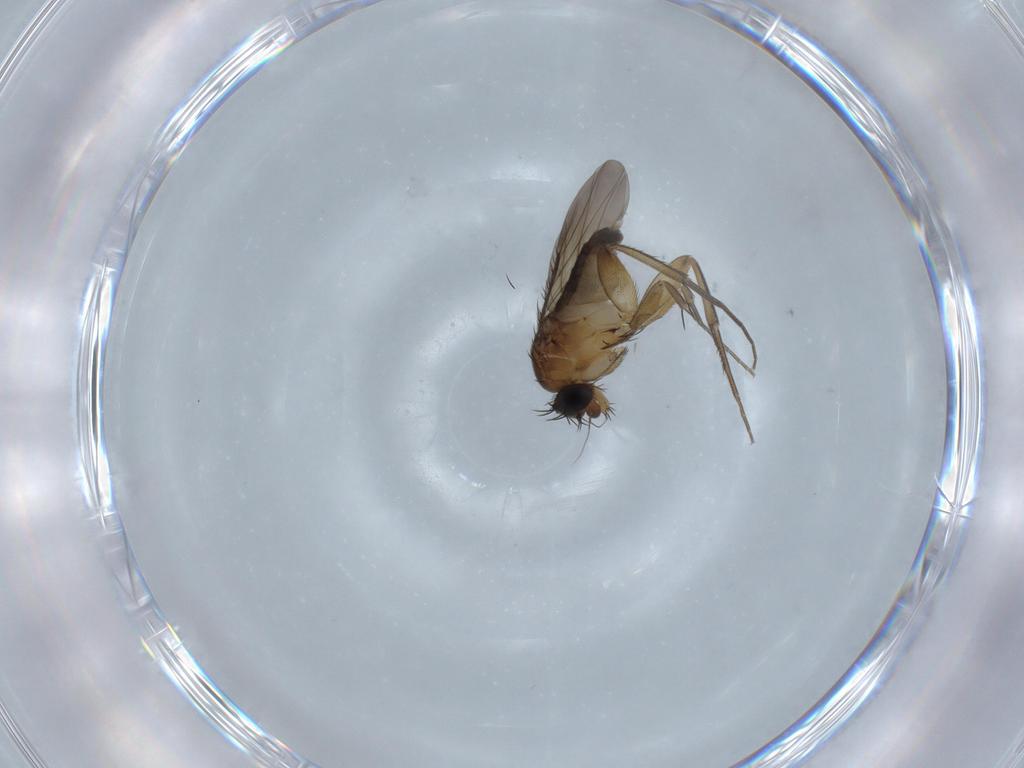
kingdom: Animalia
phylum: Arthropoda
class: Insecta
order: Diptera
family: Phoridae
